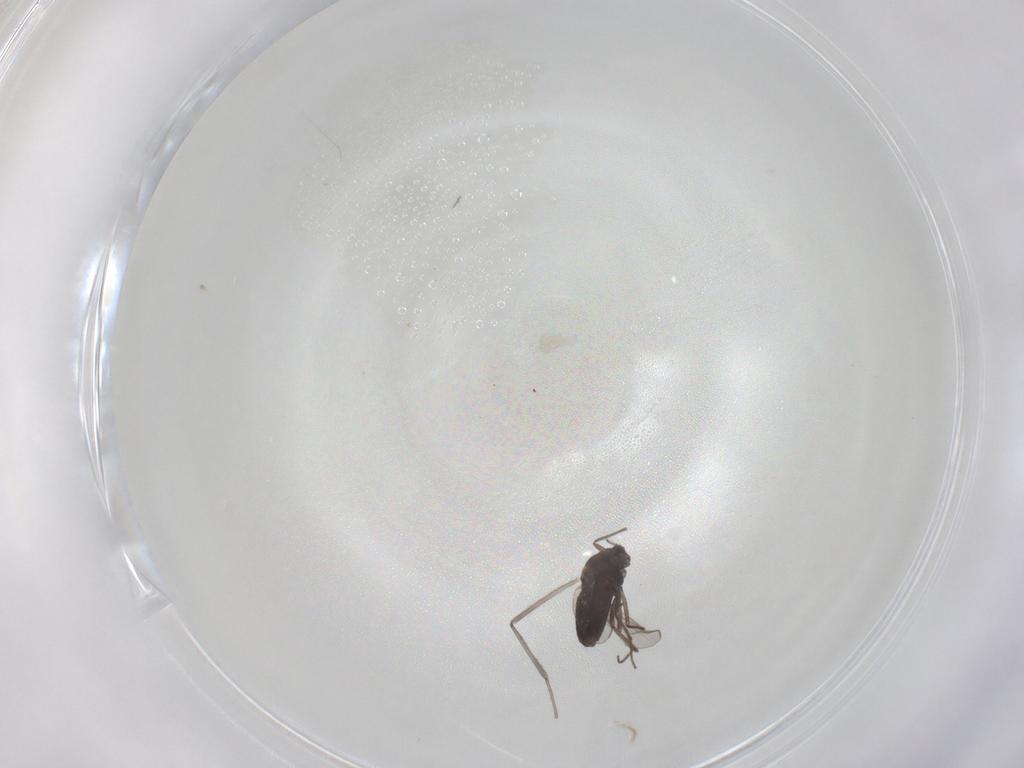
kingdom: Animalia
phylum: Arthropoda
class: Insecta
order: Diptera
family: Chironomidae
